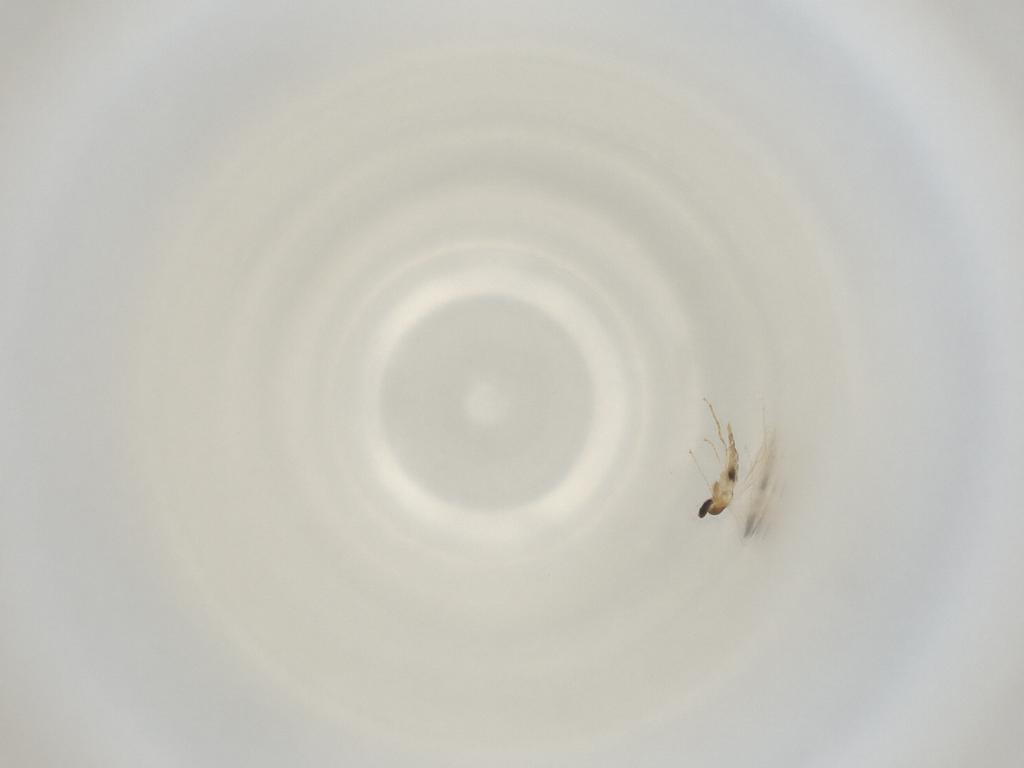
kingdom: Animalia
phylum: Arthropoda
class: Insecta
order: Diptera
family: Cecidomyiidae
